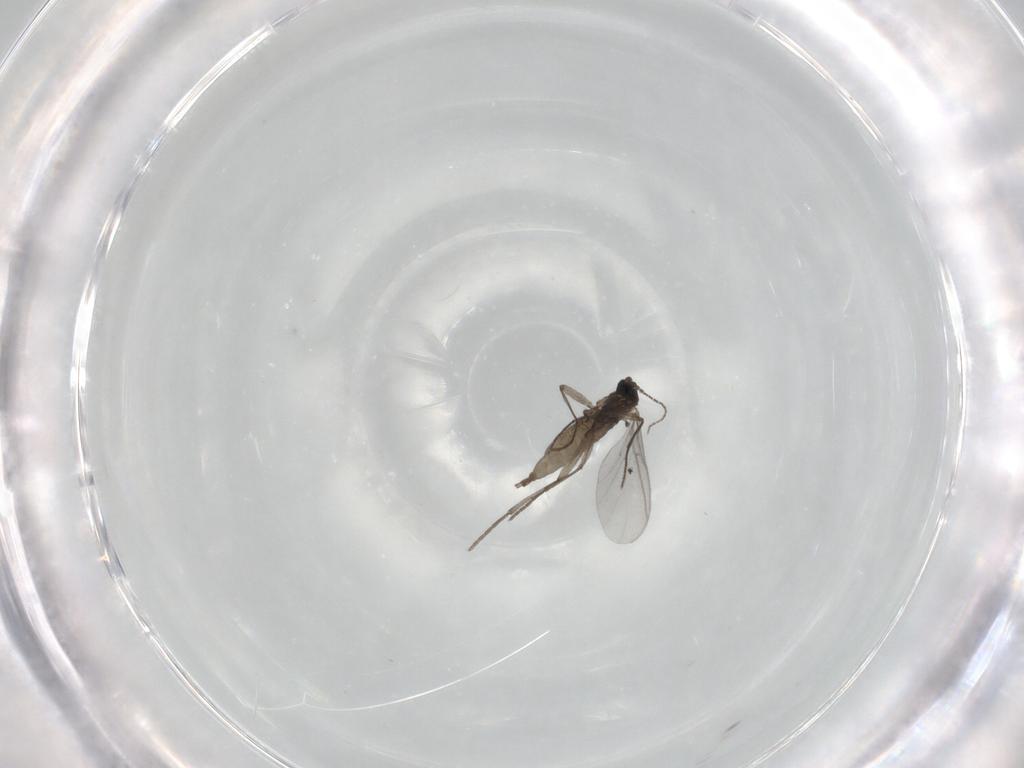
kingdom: Animalia
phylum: Arthropoda
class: Insecta
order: Diptera
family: Sciaridae
